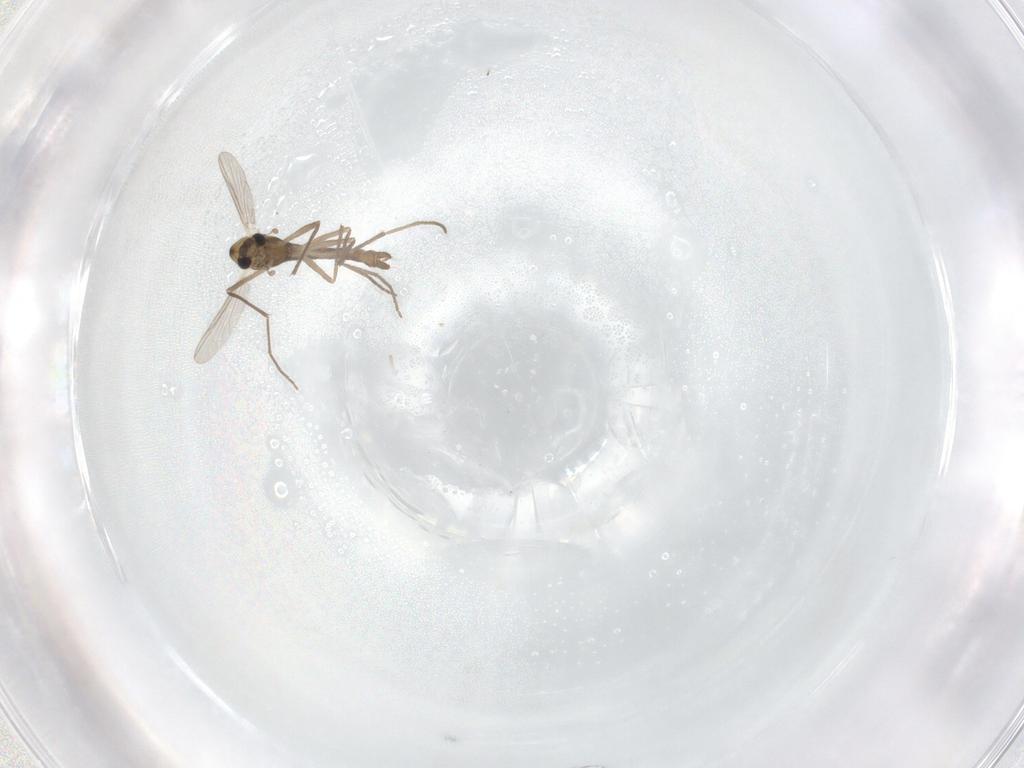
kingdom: Animalia
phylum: Arthropoda
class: Insecta
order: Diptera
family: Chironomidae
